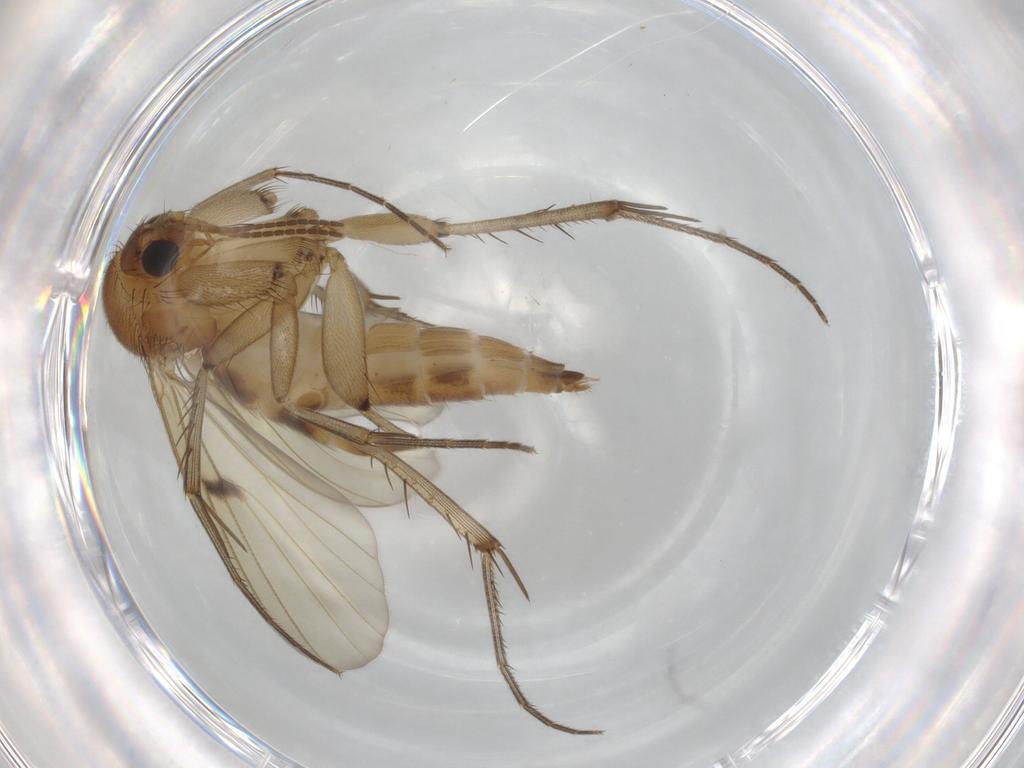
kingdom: Animalia
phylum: Arthropoda
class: Insecta
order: Diptera
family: Mycetophilidae
